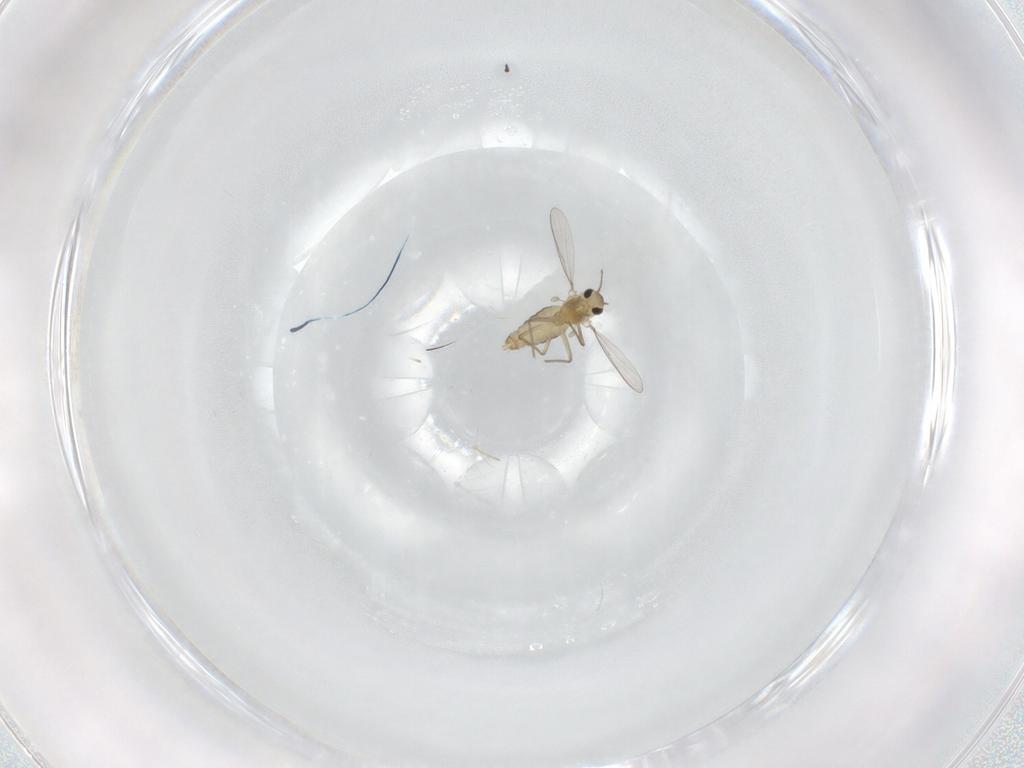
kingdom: Animalia
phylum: Arthropoda
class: Insecta
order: Diptera
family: Chironomidae
